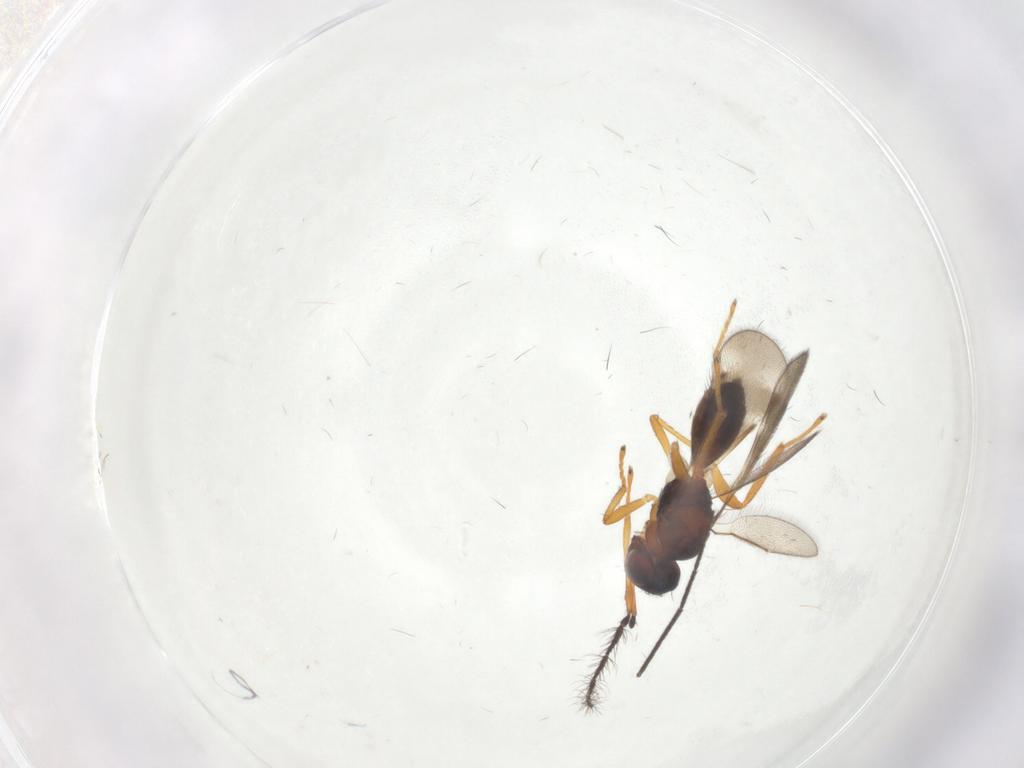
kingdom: Animalia
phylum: Arthropoda
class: Insecta
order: Hymenoptera
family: Eulophidae
